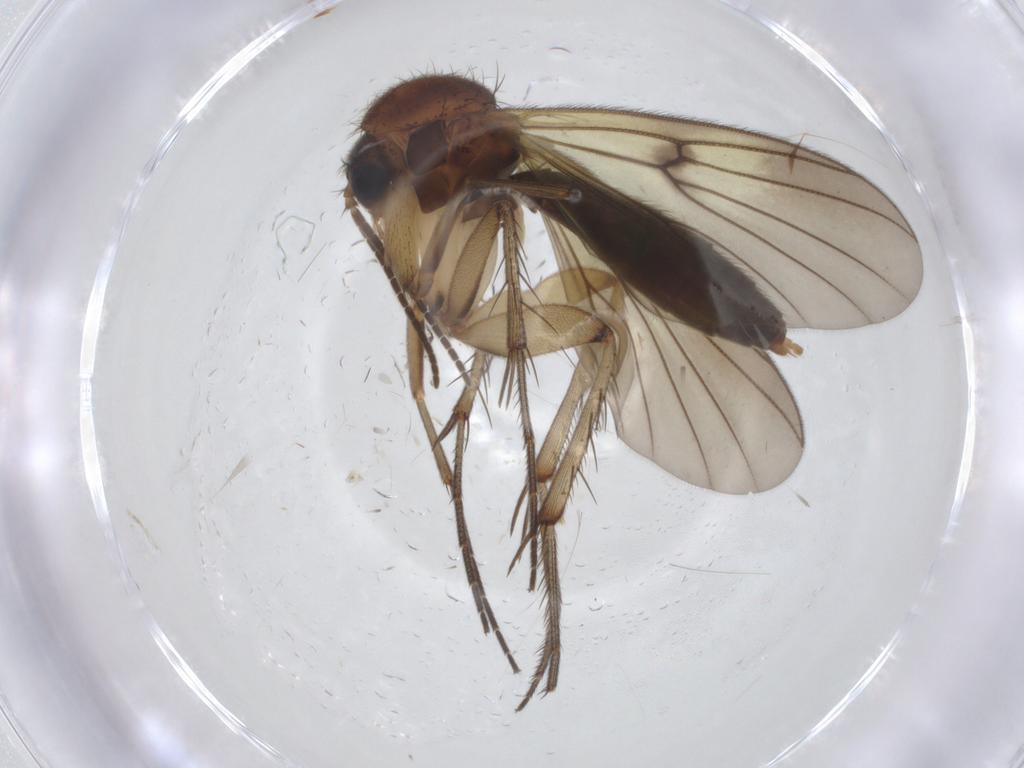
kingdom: Animalia
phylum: Arthropoda
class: Insecta
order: Diptera
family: Mycetophilidae
